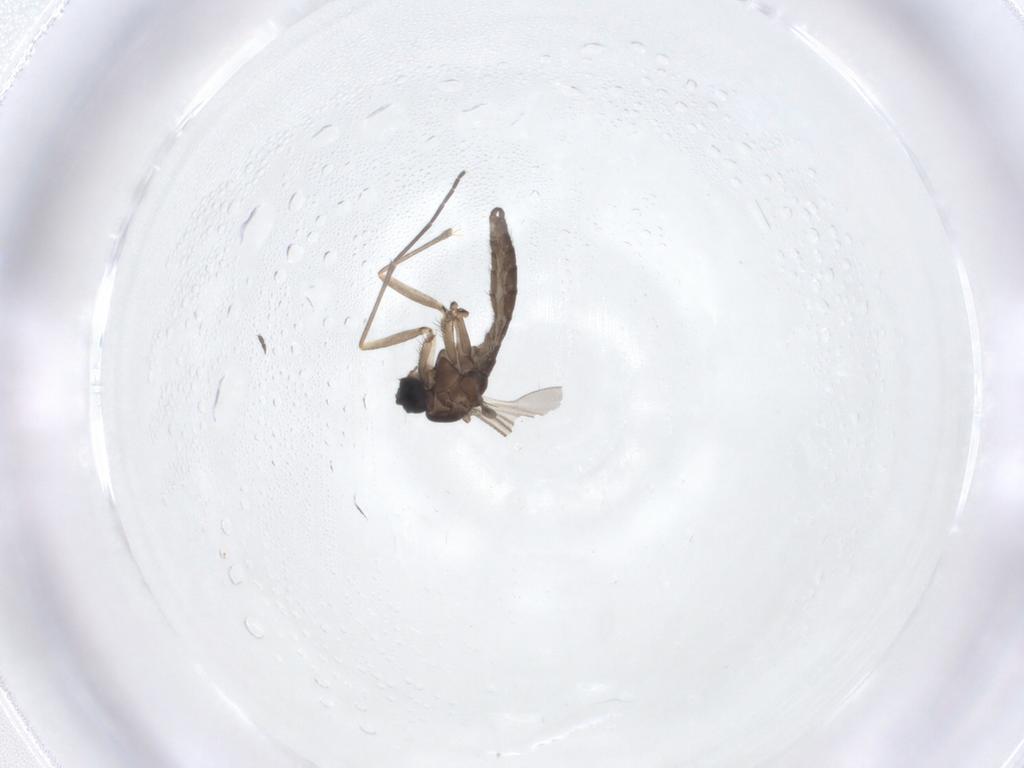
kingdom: Animalia
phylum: Arthropoda
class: Insecta
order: Diptera
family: Sciaridae
